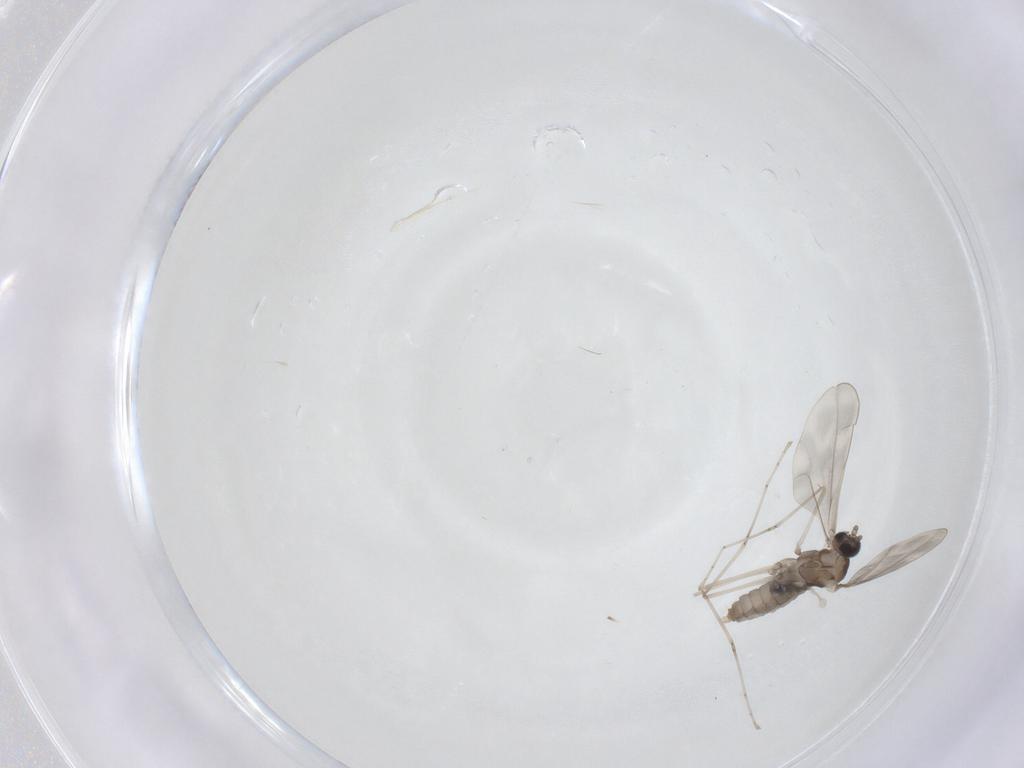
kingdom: Animalia
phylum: Arthropoda
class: Insecta
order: Diptera
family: Cecidomyiidae
